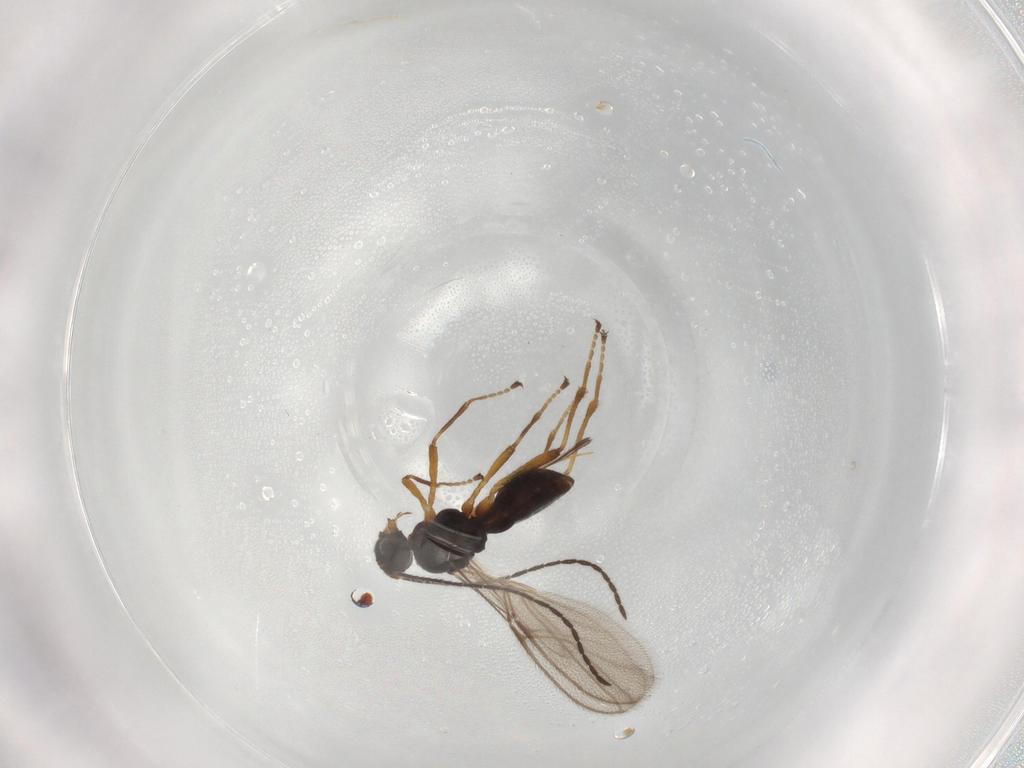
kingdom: Animalia
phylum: Arthropoda
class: Insecta
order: Hymenoptera
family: Braconidae
